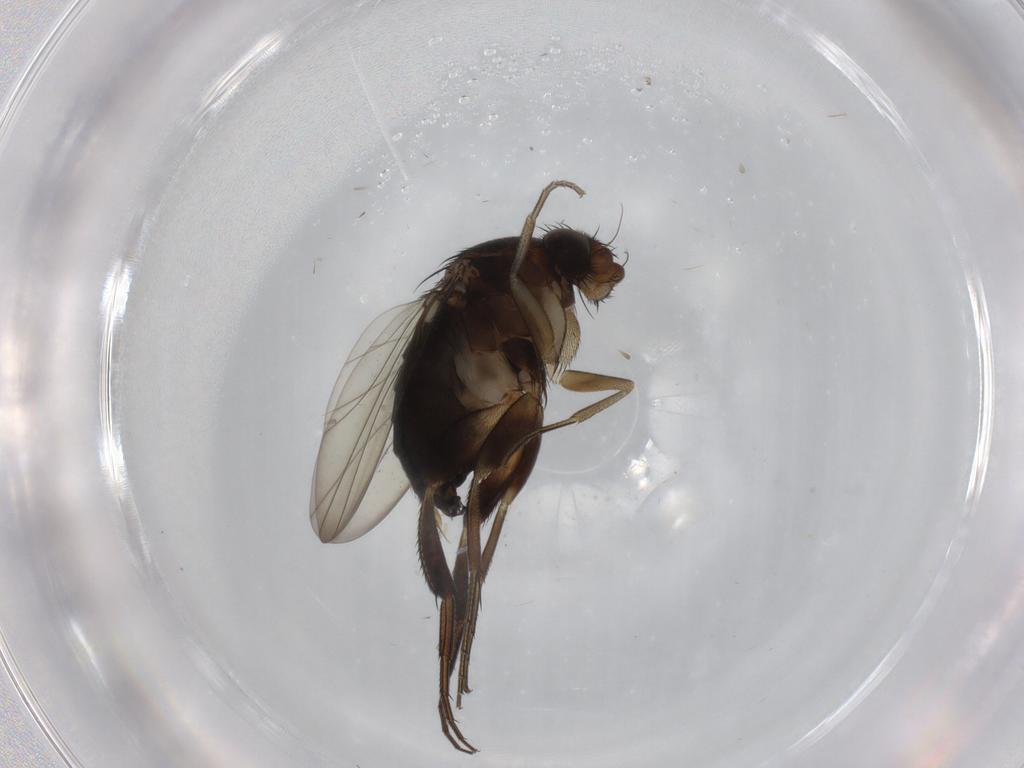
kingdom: Animalia
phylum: Arthropoda
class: Insecta
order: Diptera
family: Phoridae
